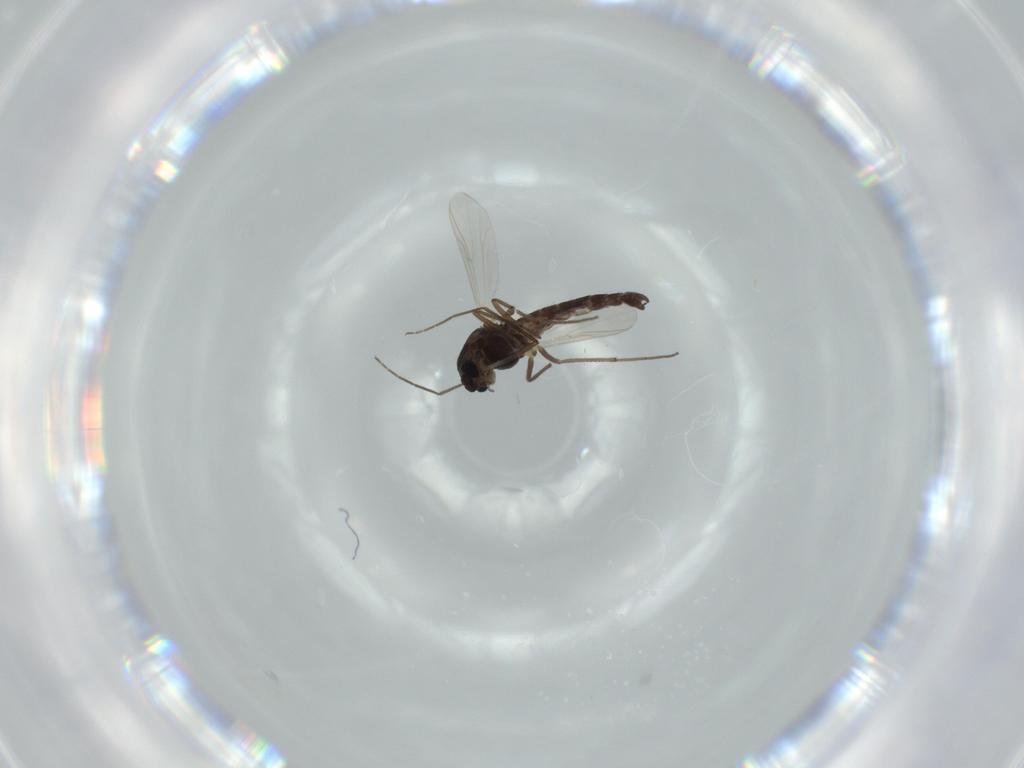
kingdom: Animalia
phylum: Arthropoda
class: Insecta
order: Diptera
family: Chironomidae
